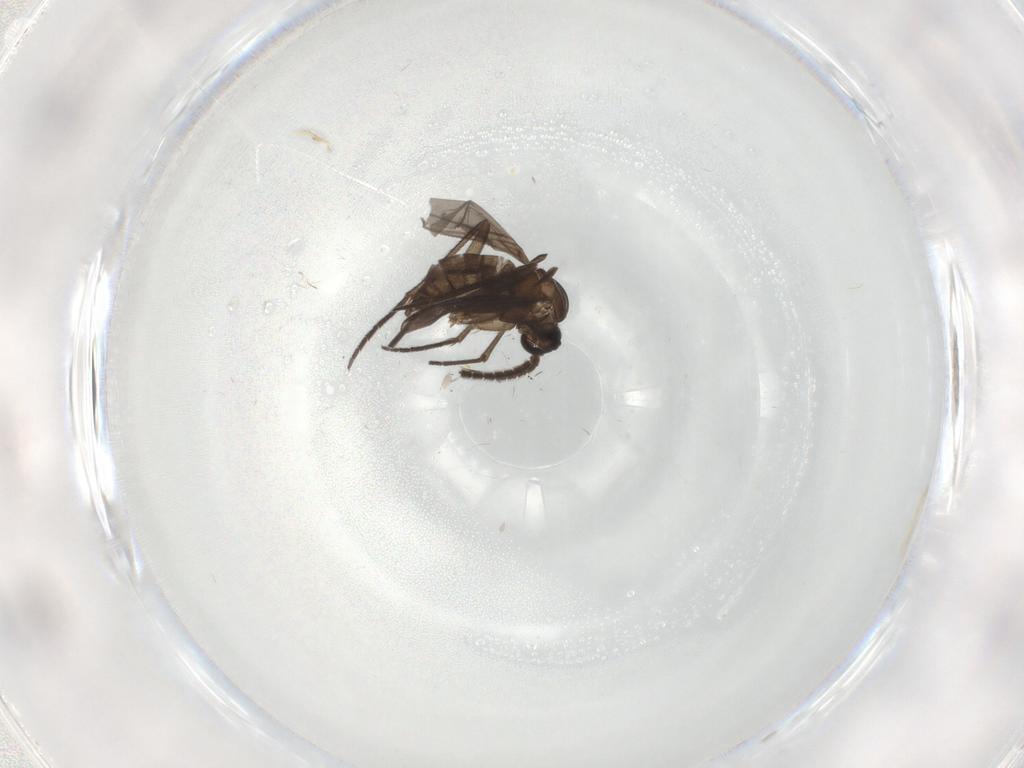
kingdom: Animalia
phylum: Arthropoda
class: Insecta
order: Diptera
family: Sciaridae
